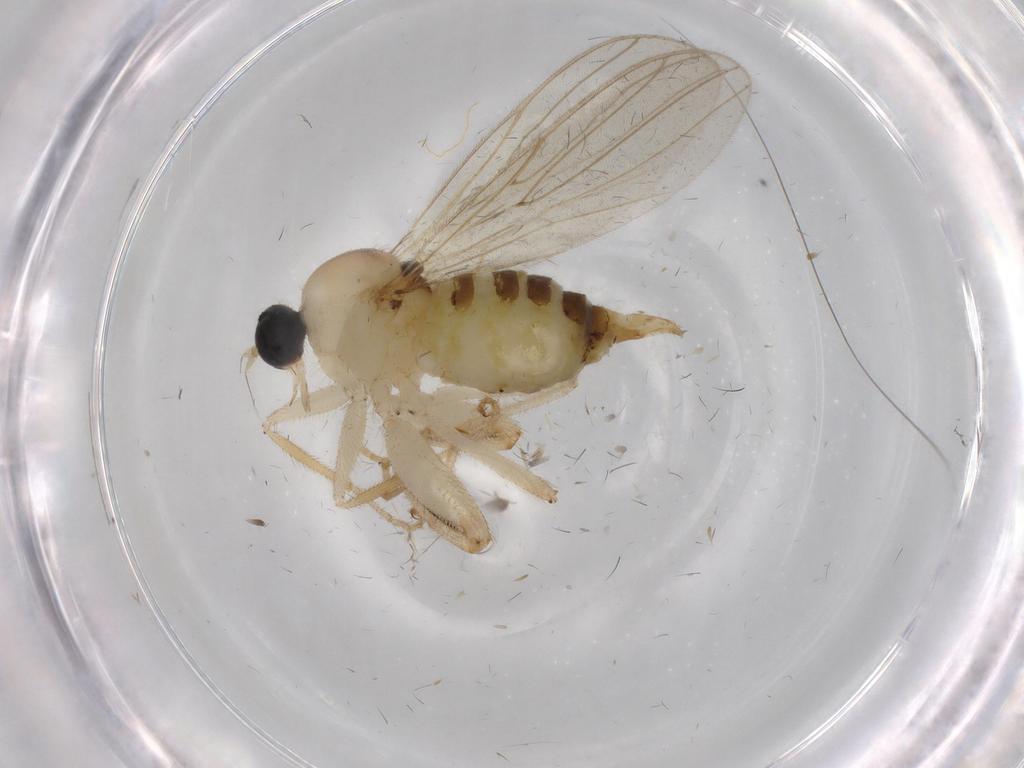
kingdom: Animalia
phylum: Arthropoda
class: Insecta
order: Diptera
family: Hybotidae
